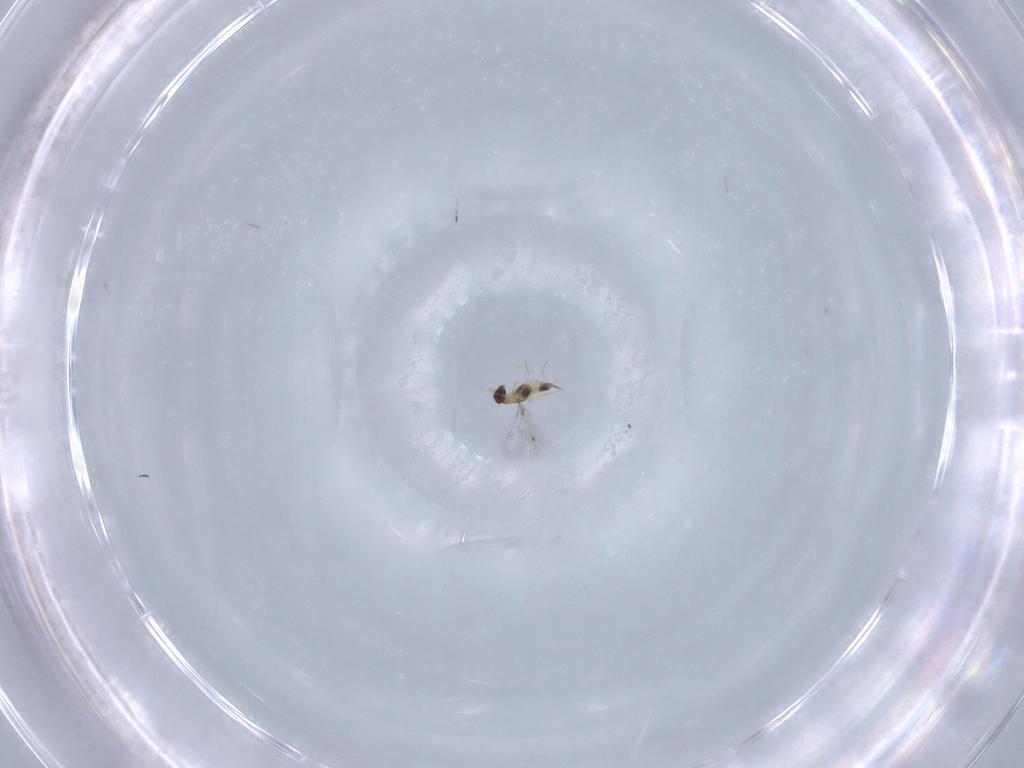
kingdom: Animalia
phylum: Arthropoda
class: Insecta
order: Hymenoptera
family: Mymaridae
